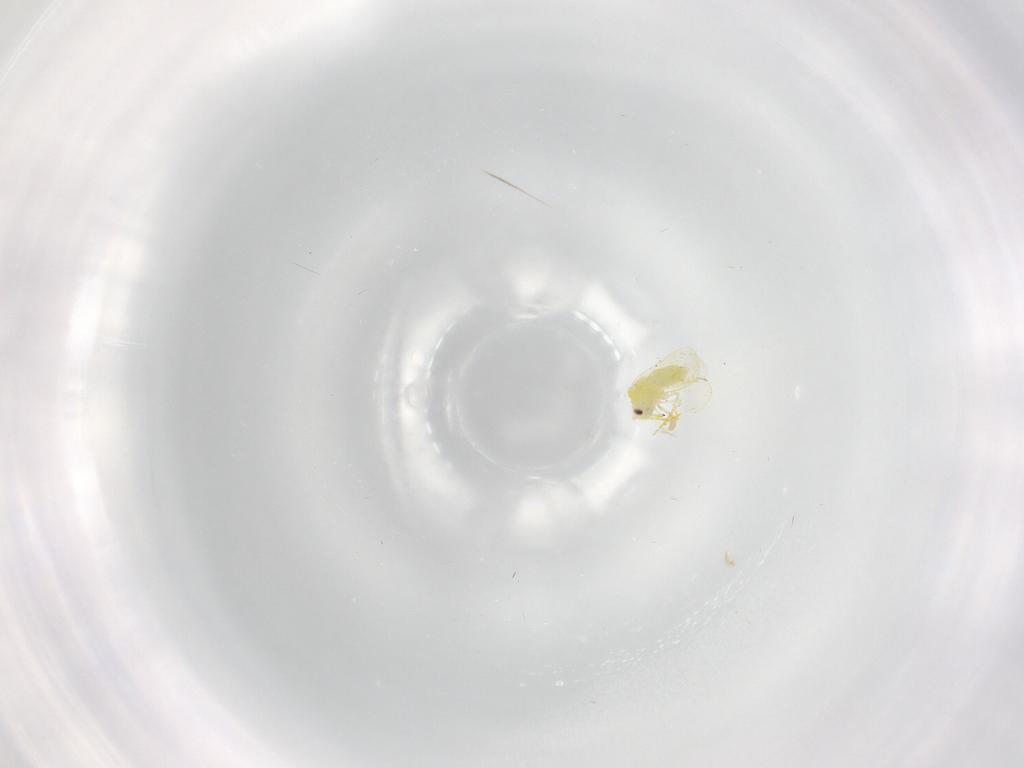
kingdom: Animalia
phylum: Arthropoda
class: Insecta
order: Hemiptera
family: Aleyrodidae
